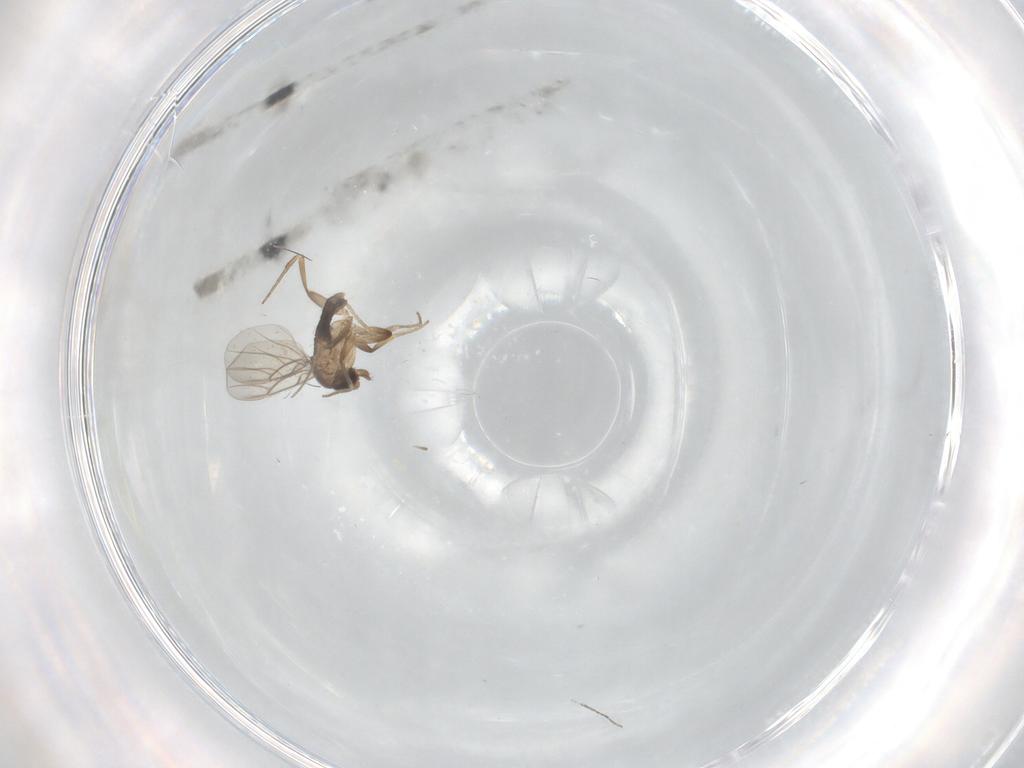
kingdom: Animalia
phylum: Arthropoda
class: Insecta
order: Diptera
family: Phoridae
